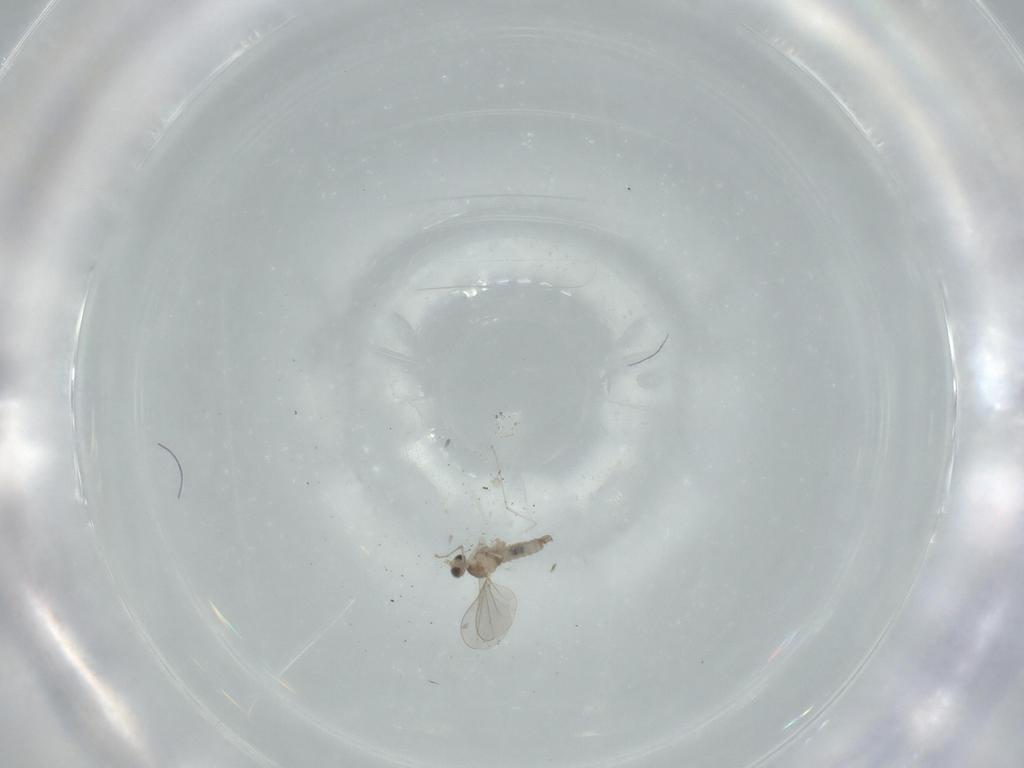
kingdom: Animalia
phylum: Arthropoda
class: Insecta
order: Diptera
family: Cecidomyiidae
